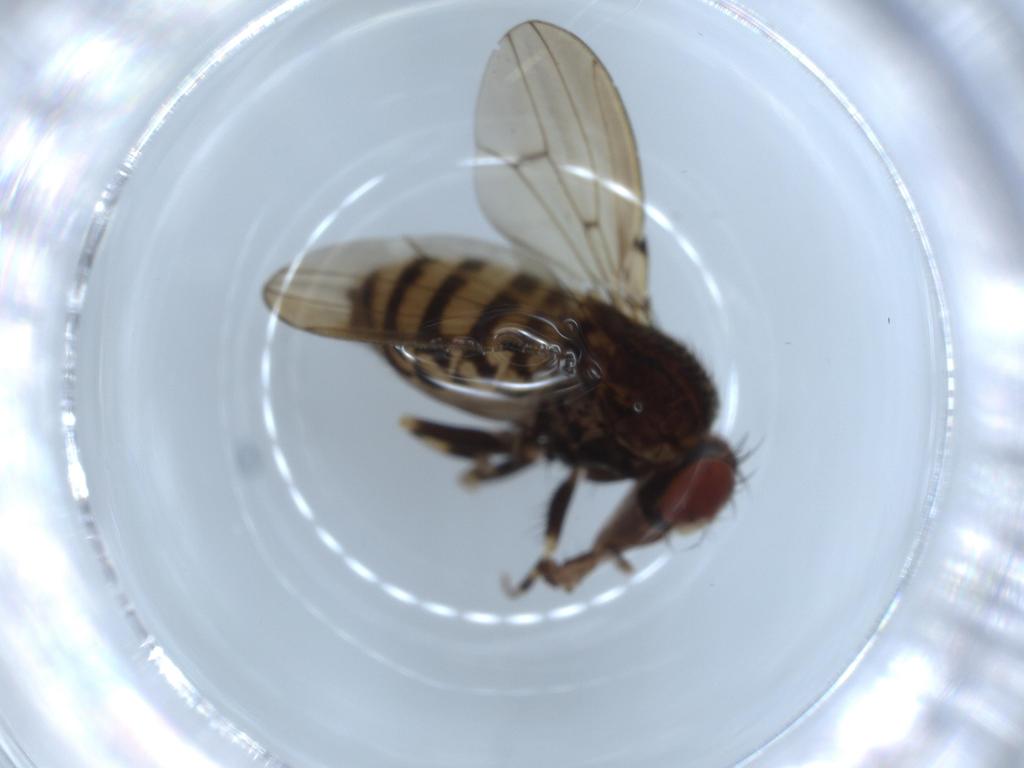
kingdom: Animalia
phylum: Arthropoda
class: Insecta
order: Diptera
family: Drosophilidae
